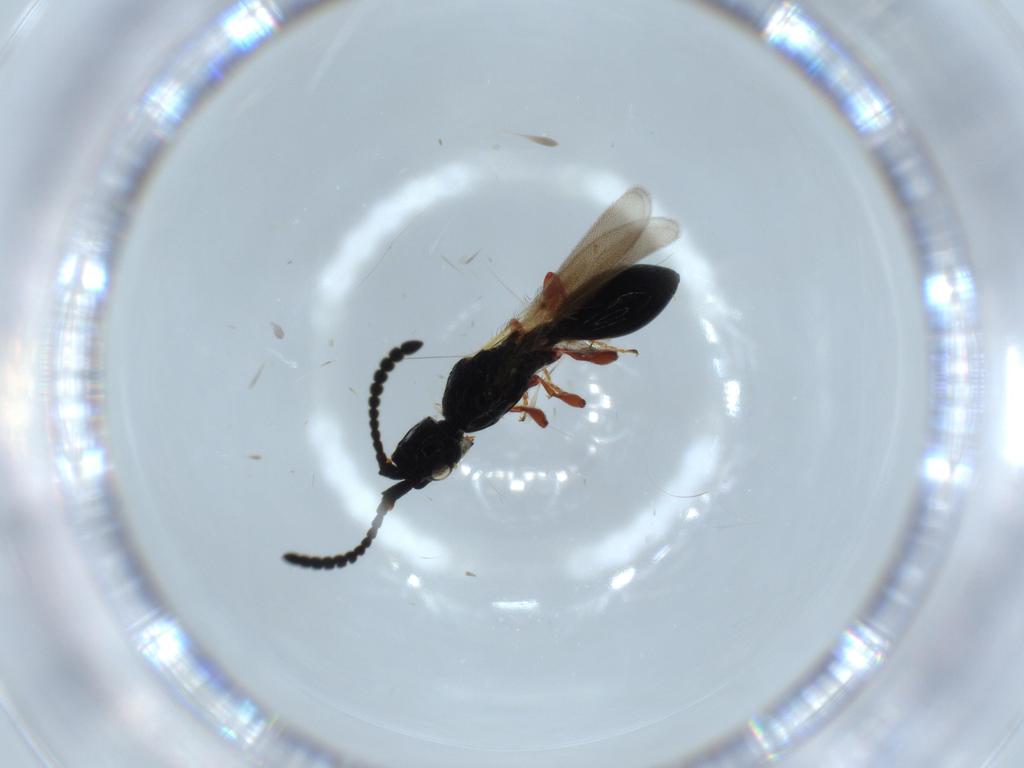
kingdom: Animalia
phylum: Arthropoda
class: Insecta
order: Hymenoptera
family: Diapriidae
